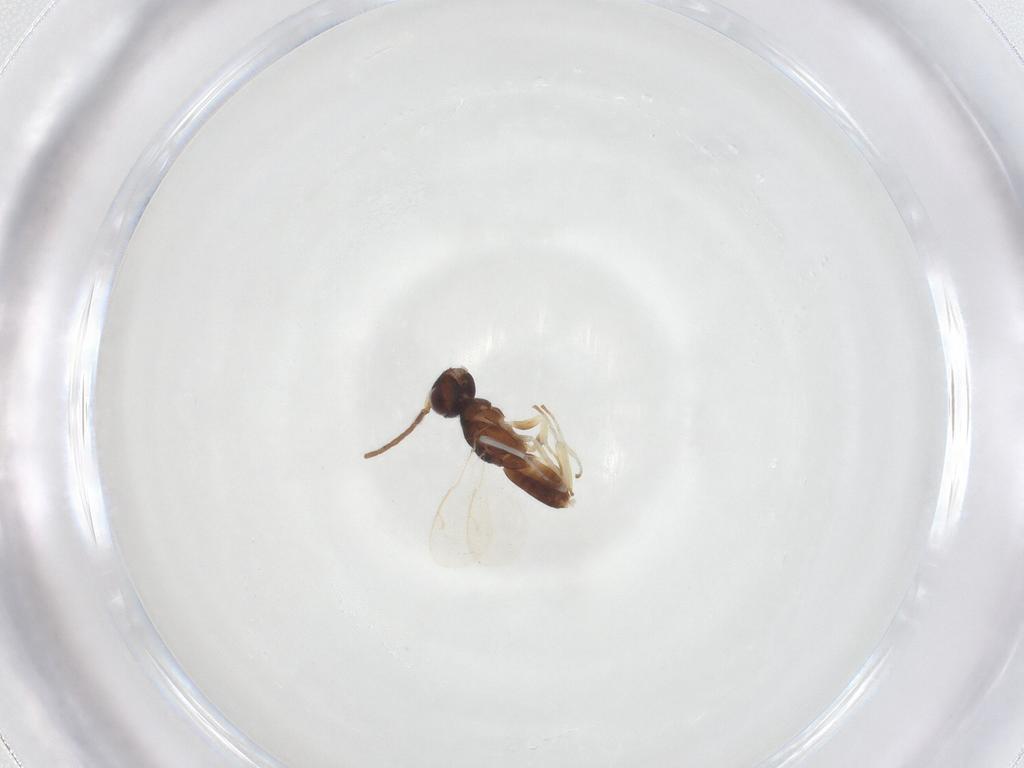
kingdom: Animalia
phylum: Arthropoda
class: Insecta
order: Hymenoptera
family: Eupelmidae
